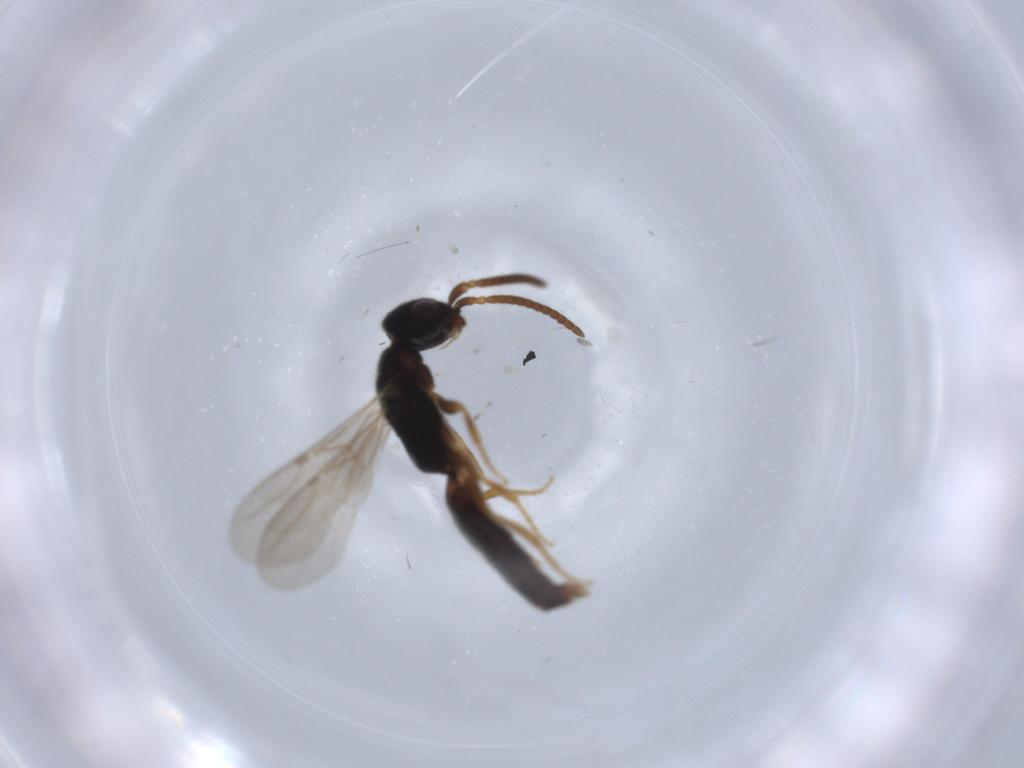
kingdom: Animalia
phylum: Arthropoda
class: Insecta
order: Hymenoptera
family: Bethylidae
